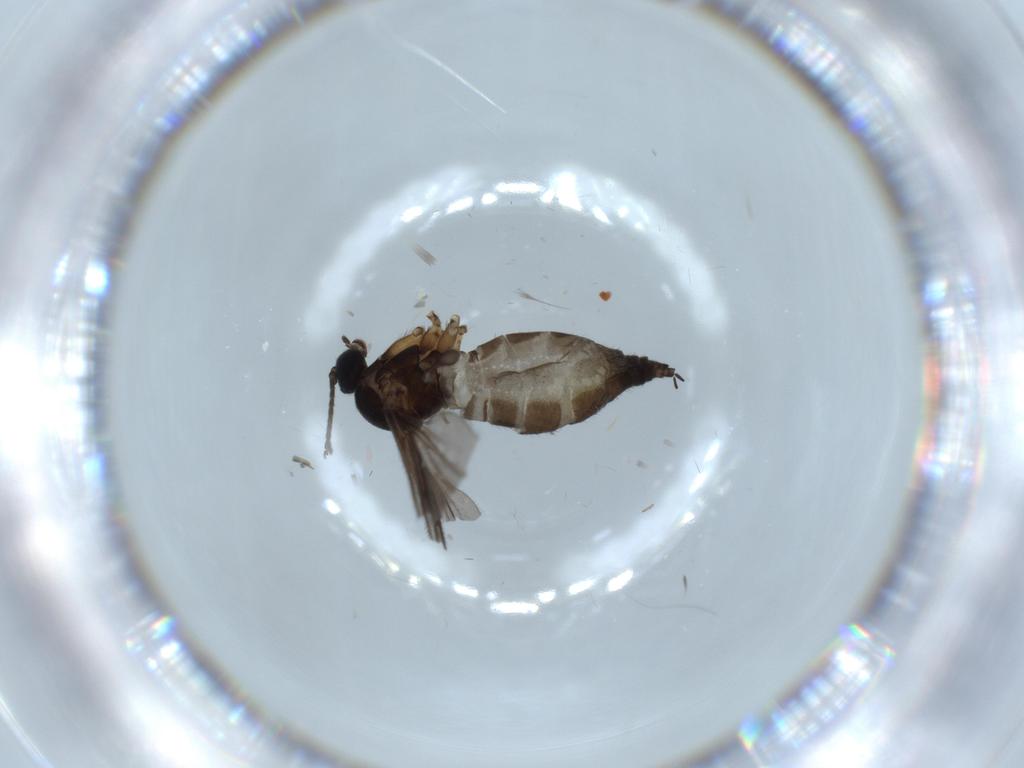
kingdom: Animalia
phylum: Arthropoda
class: Insecta
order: Diptera
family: Sciaridae
